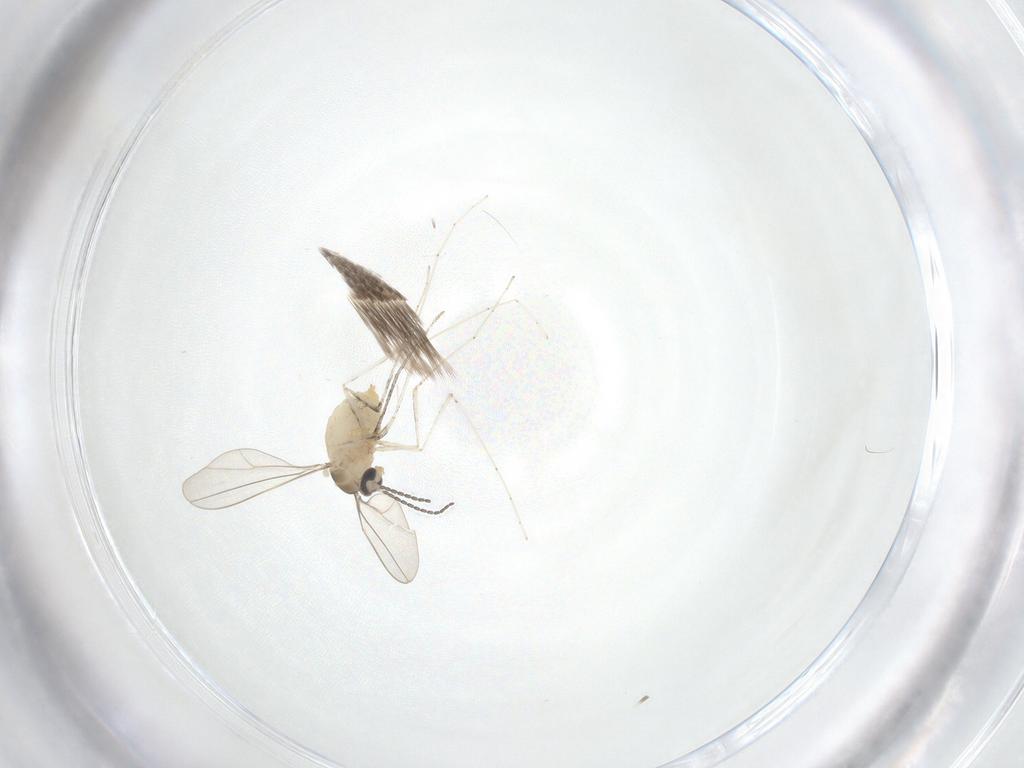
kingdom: Animalia
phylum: Arthropoda
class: Insecta
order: Diptera
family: Cecidomyiidae
